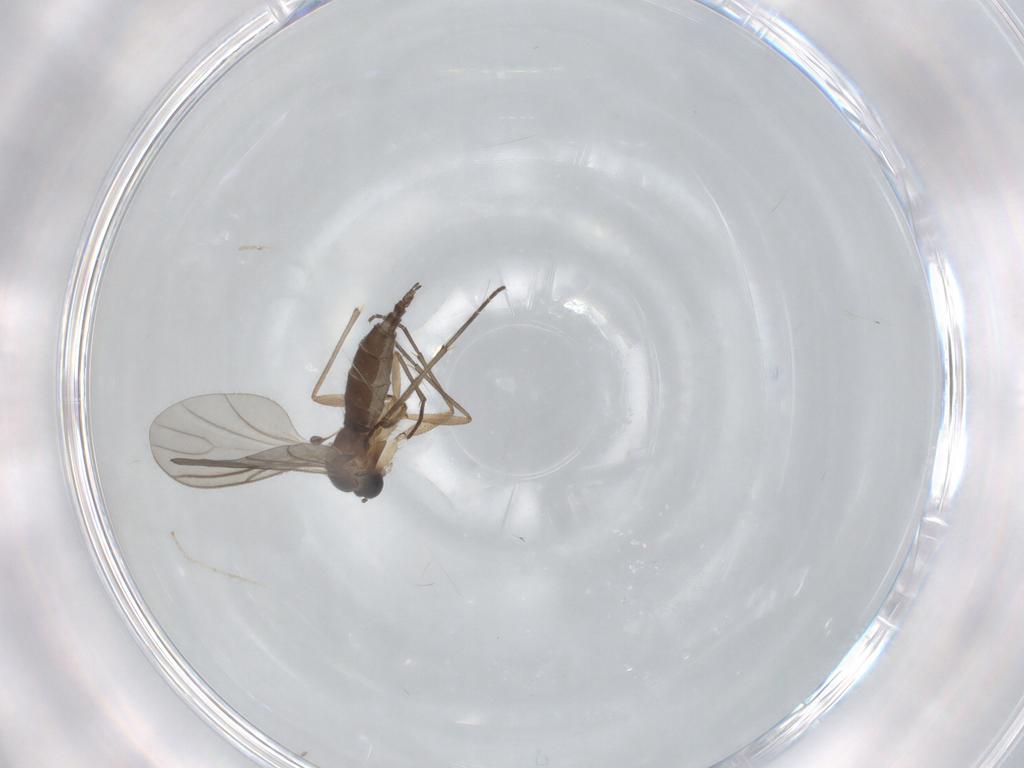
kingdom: Animalia
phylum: Arthropoda
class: Insecta
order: Diptera
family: Sciaridae
